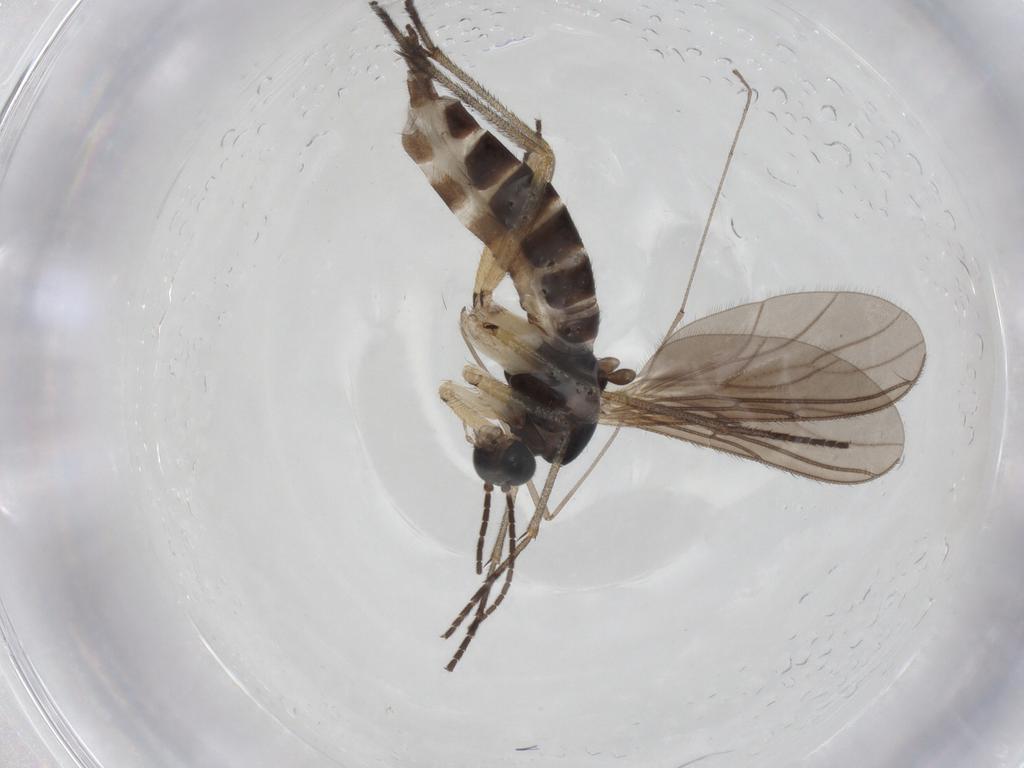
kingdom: Animalia
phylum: Arthropoda
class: Insecta
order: Diptera
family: Sciaridae
